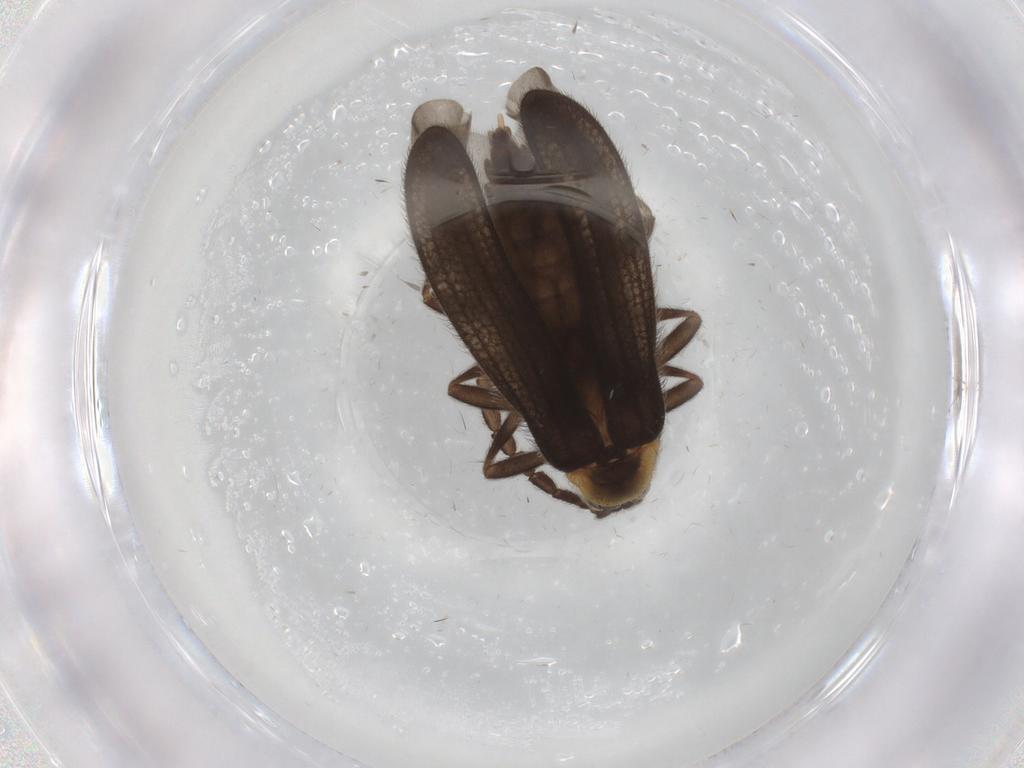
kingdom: Animalia
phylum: Arthropoda
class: Insecta
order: Coleoptera
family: Lycidae
